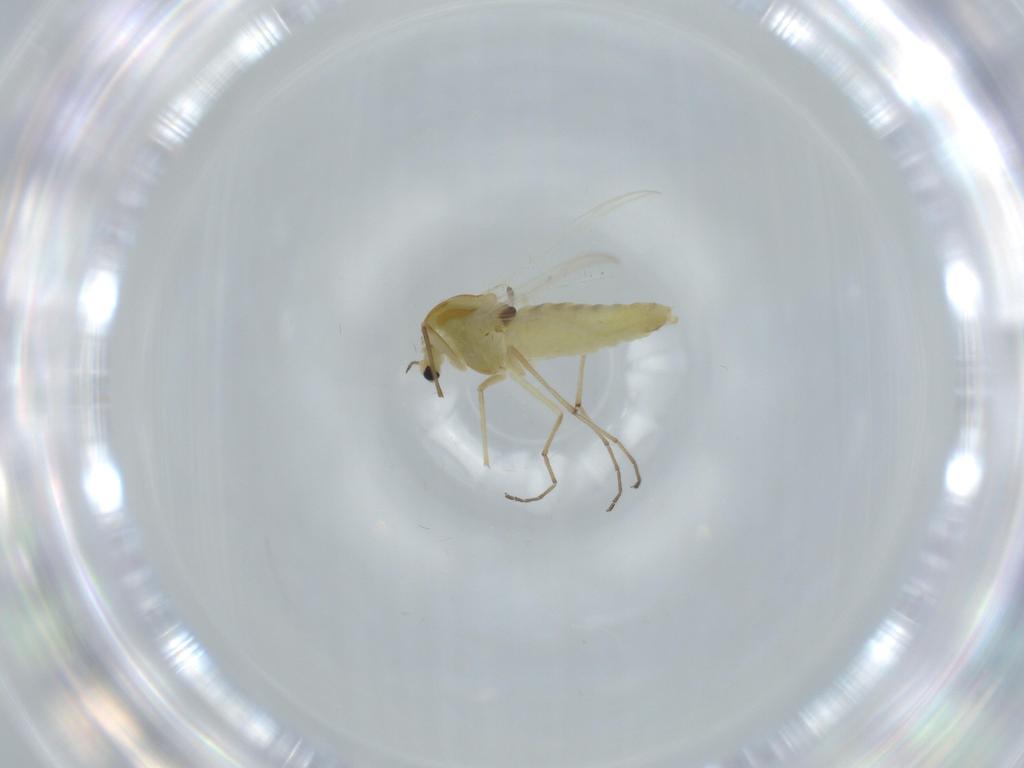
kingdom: Animalia
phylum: Arthropoda
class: Insecta
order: Diptera
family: Chironomidae
